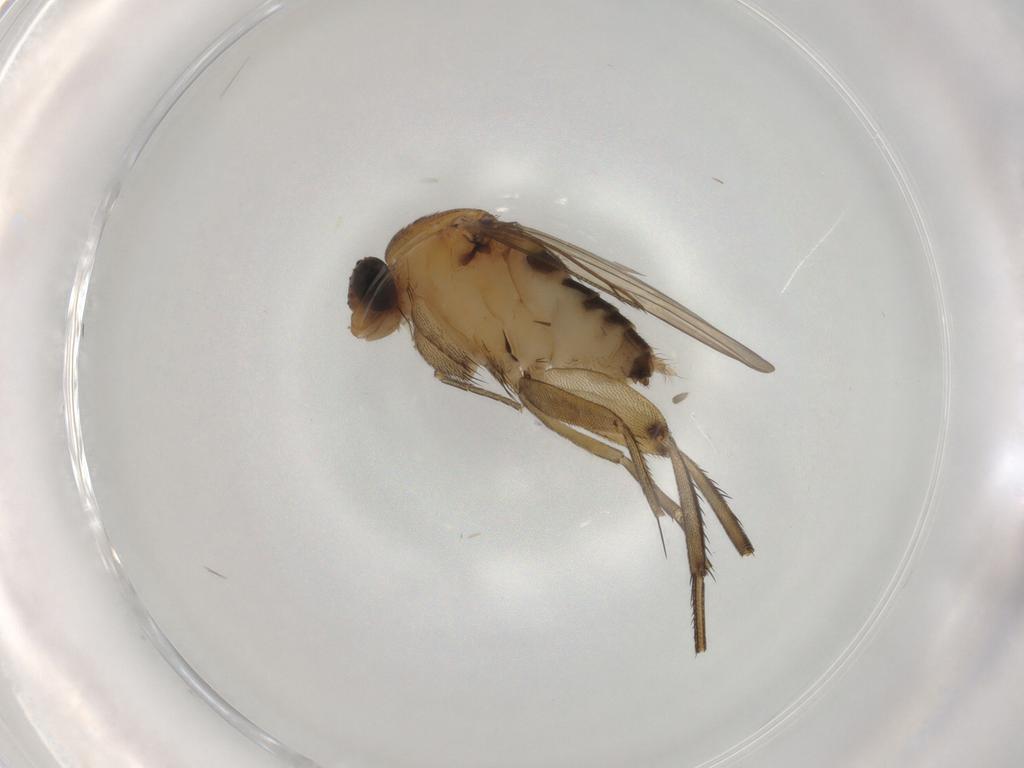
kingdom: Animalia
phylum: Arthropoda
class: Insecta
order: Diptera
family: Phoridae
